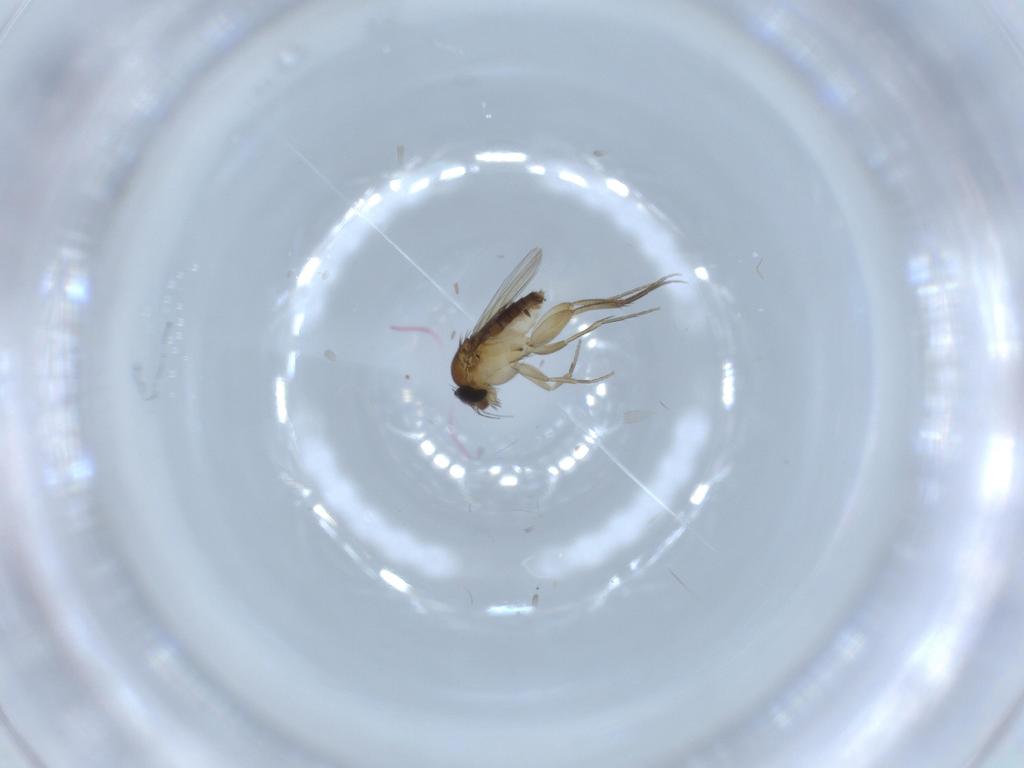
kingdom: Animalia
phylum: Arthropoda
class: Insecta
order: Diptera
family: Phoridae
